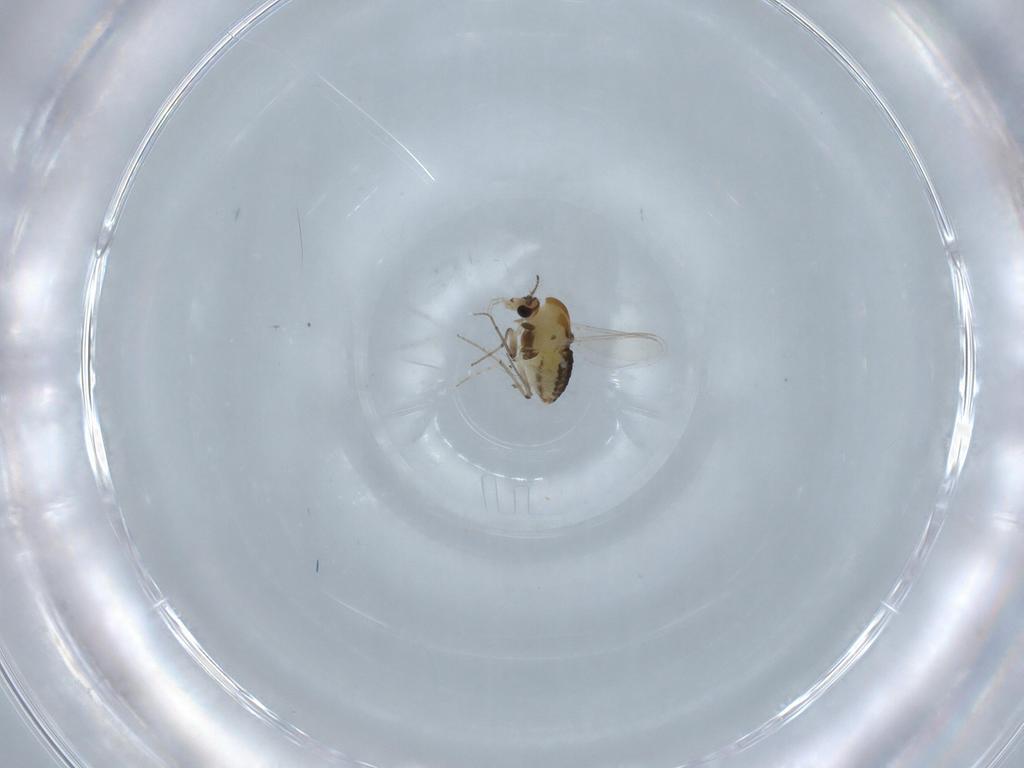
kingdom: Animalia
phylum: Arthropoda
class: Insecta
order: Diptera
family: Chironomidae
